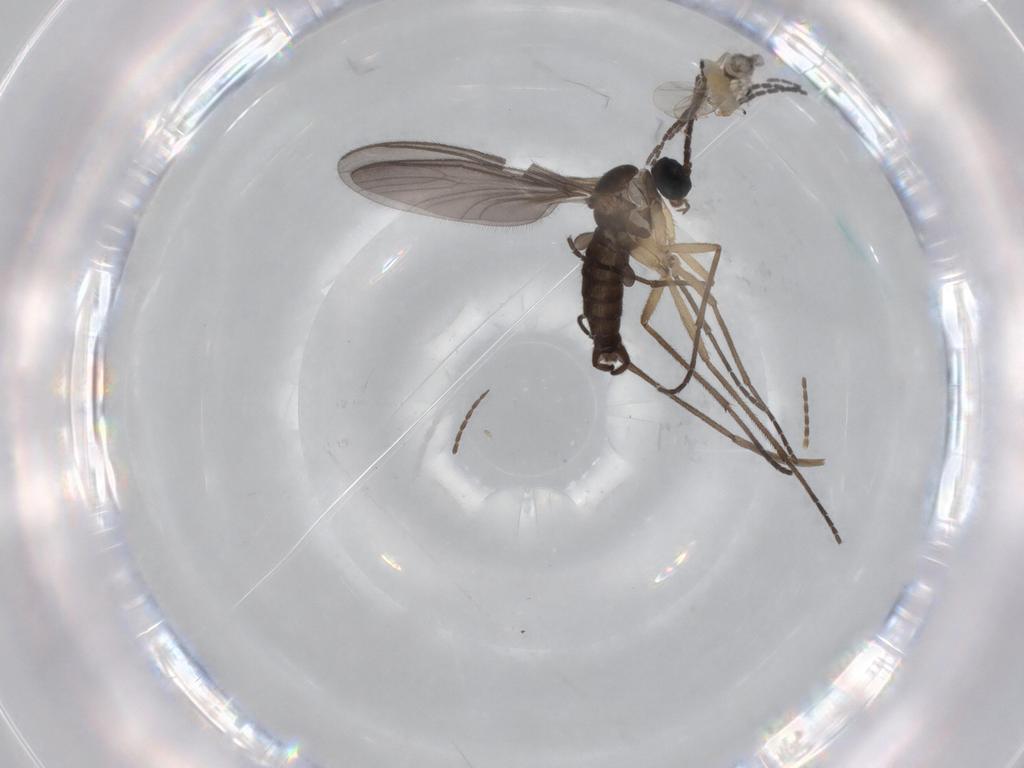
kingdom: Animalia
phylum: Arthropoda
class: Insecta
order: Diptera
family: Sciaridae
